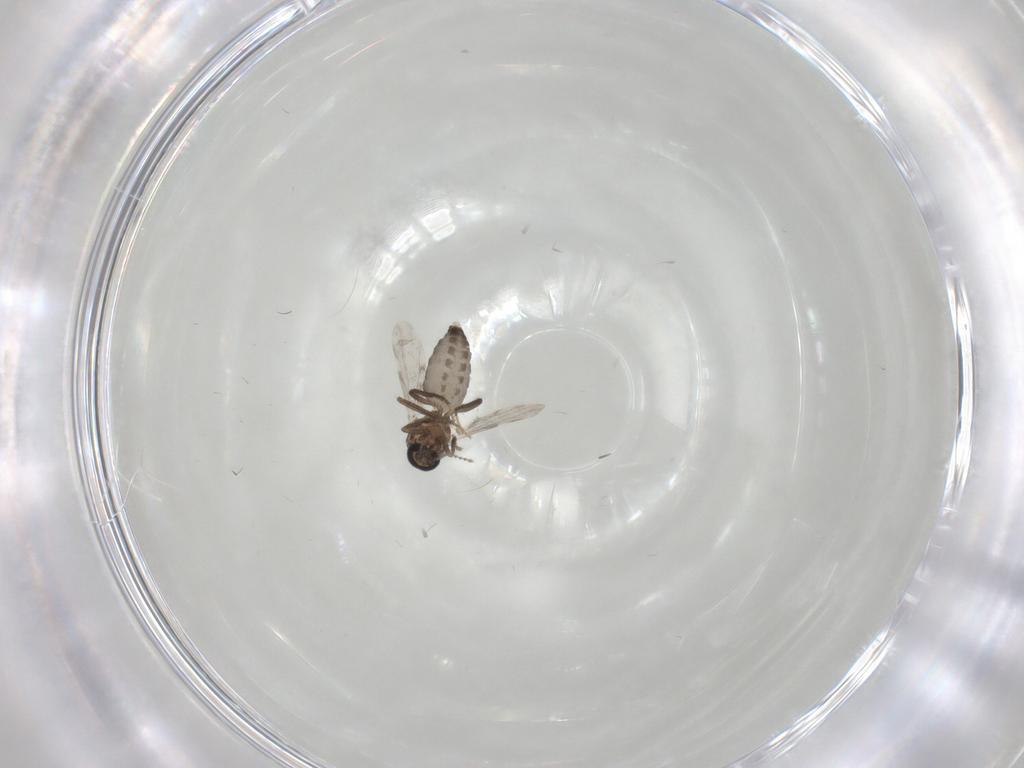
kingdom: Animalia
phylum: Arthropoda
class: Insecta
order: Diptera
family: Ceratopogonidae
